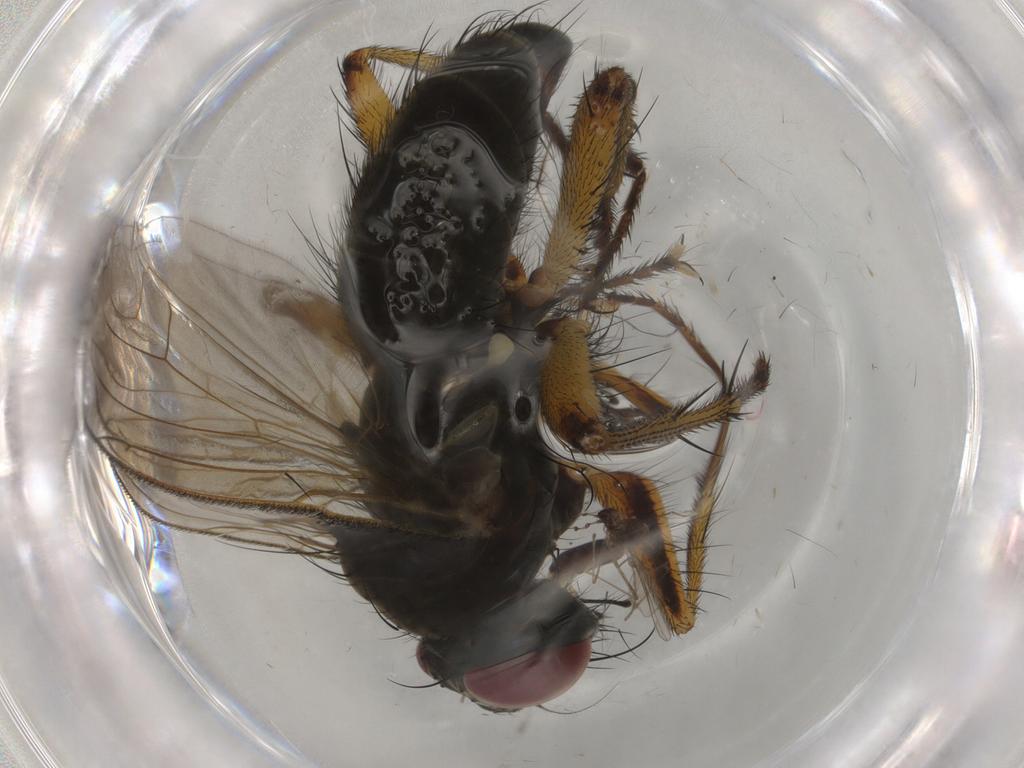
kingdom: Animalia
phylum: Arthropoda
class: Insecta
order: Diptera
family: Muscidae
